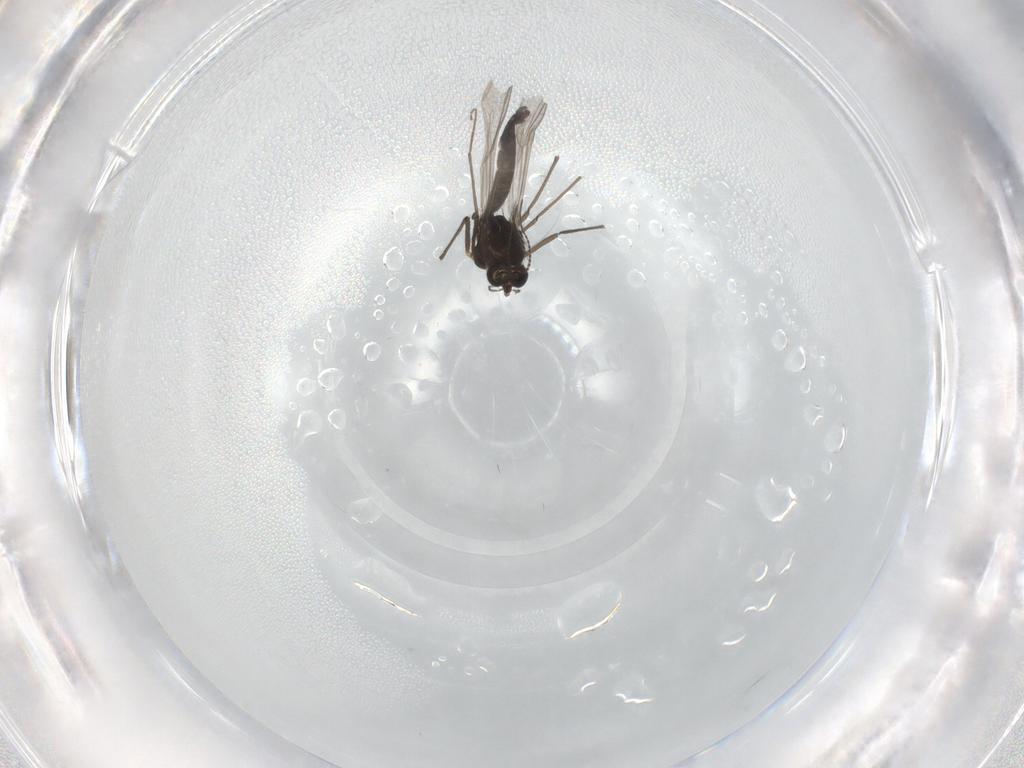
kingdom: Animalia
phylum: Arthropoda
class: Insecta
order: Diptera
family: Chironomidae
